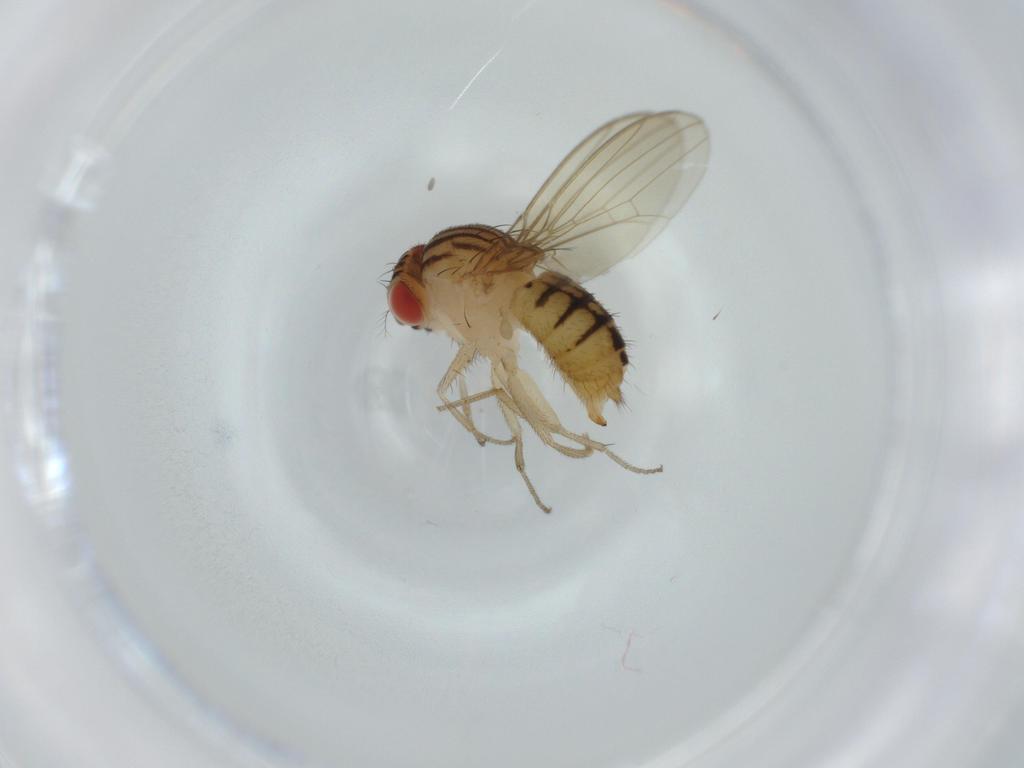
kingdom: Animalia
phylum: Arthropoda
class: Insecta
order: Diptera
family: Drosophilidae
